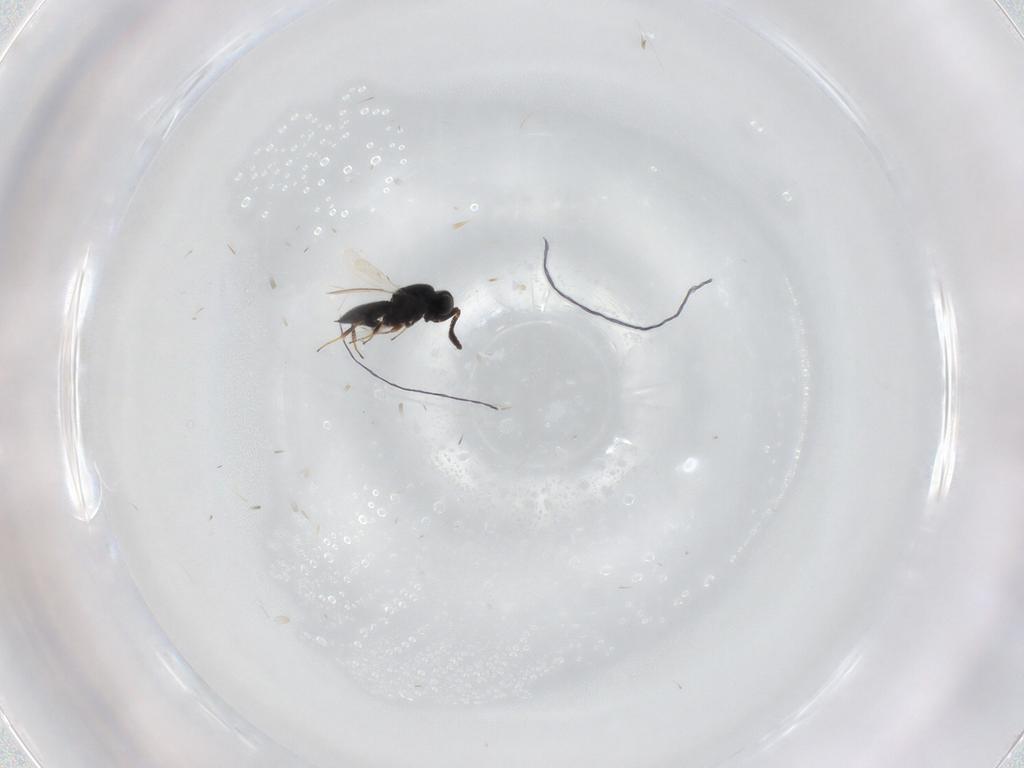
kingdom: Animalia
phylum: Arthropoda
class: Insecta
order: Hymenoptera
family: Scelionidae
